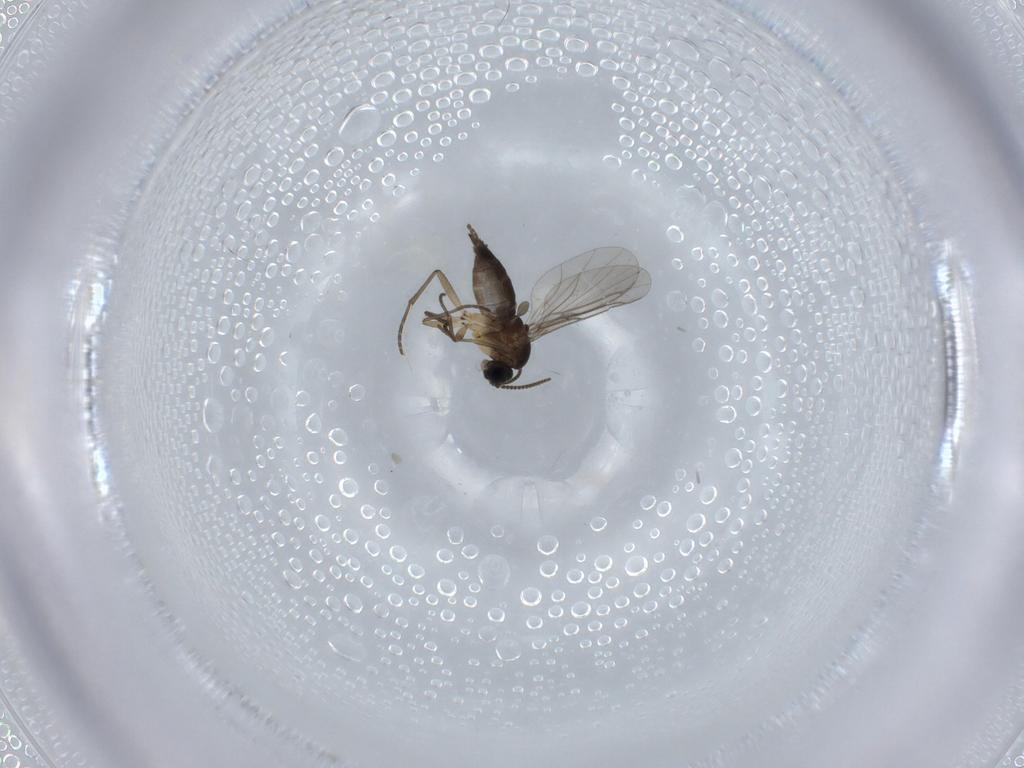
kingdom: Animalia
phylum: Arthropoda
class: Insecta
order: Diptera
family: Sciaridae
